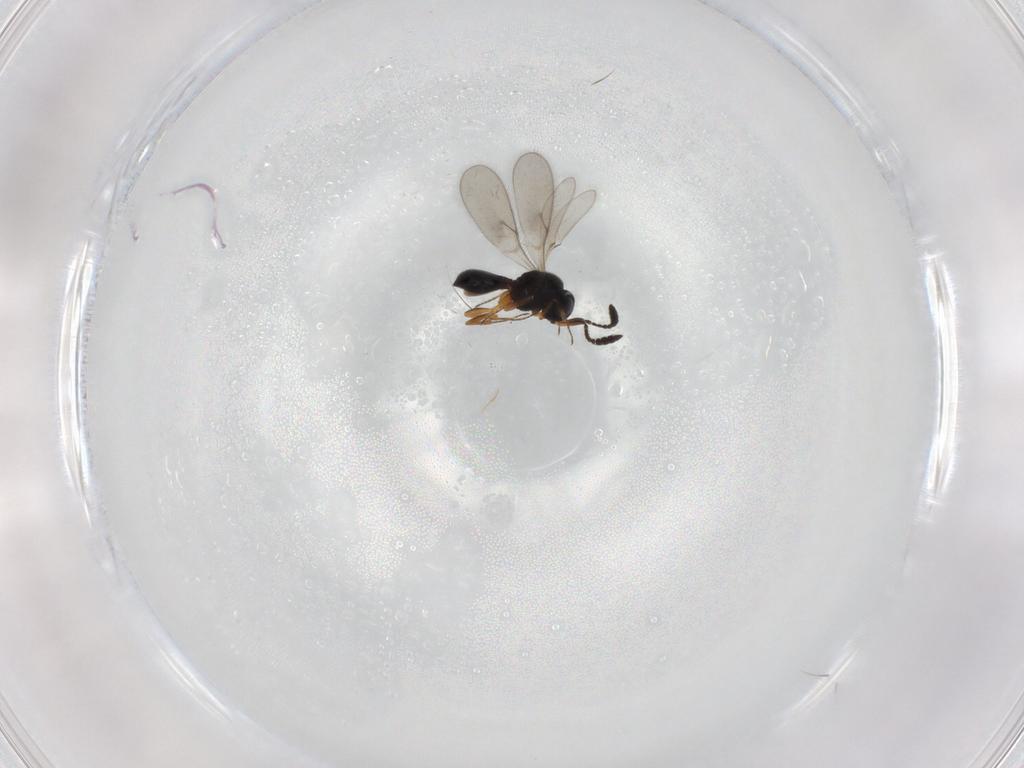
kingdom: Animalia
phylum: Arthropoda
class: Insecta
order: Hymenoptera
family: Scelionidae
